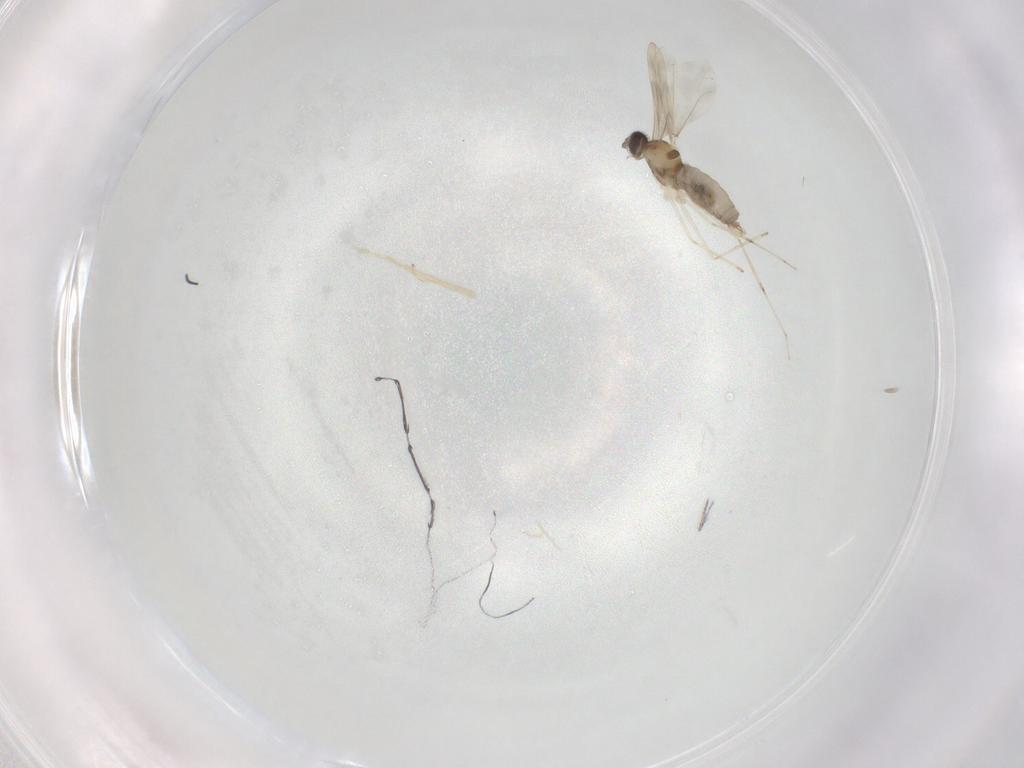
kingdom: Animalia
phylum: Arthropoda
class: Insecta
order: Diptera
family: Cecidomyiidae
